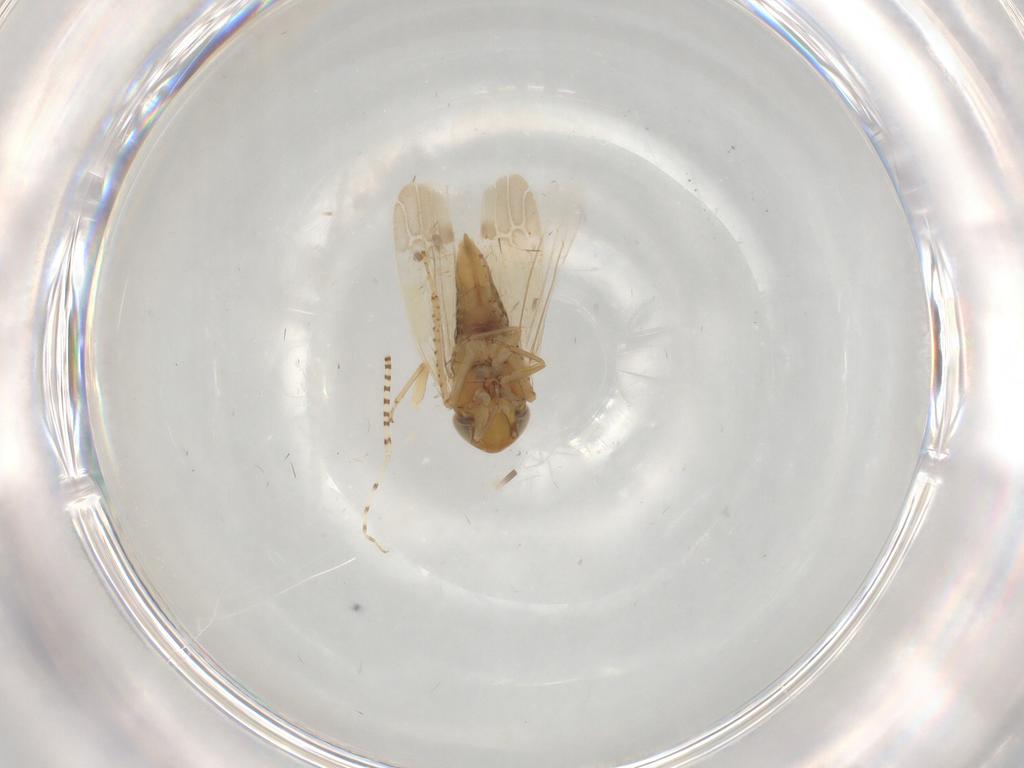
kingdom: Animalia
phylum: Arthropoda
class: Insecta
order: Hemiptera
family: Cicadellidae
